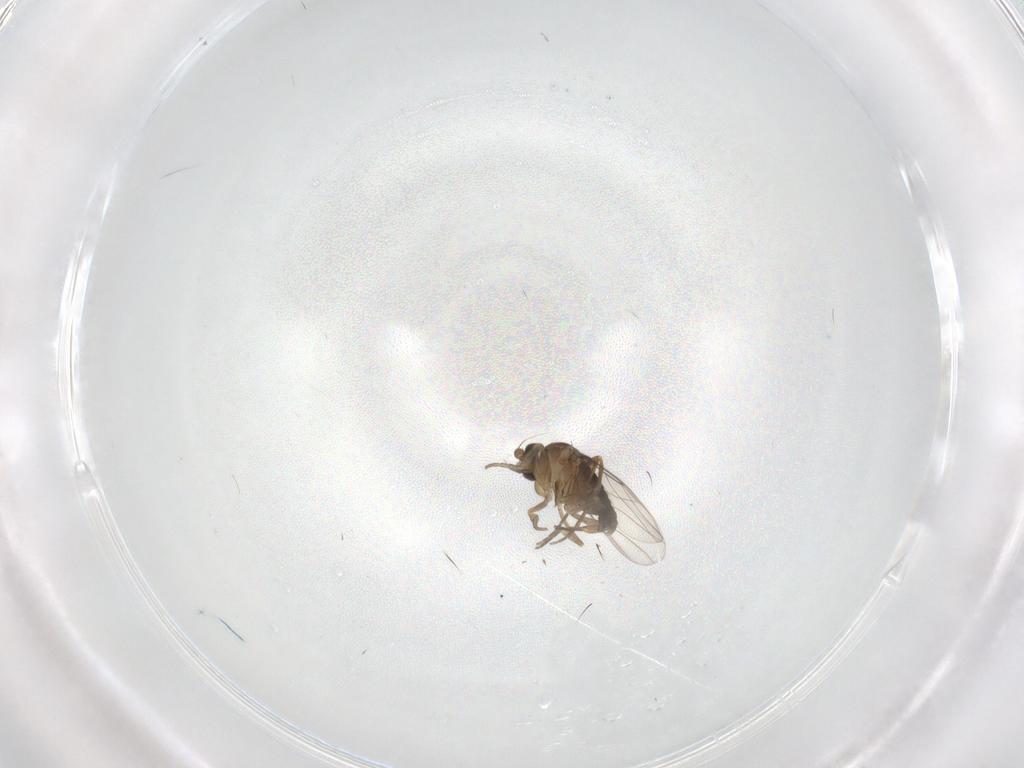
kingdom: Animalia
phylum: Arthropoda
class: Insecta
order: Diptera
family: Phoridae
